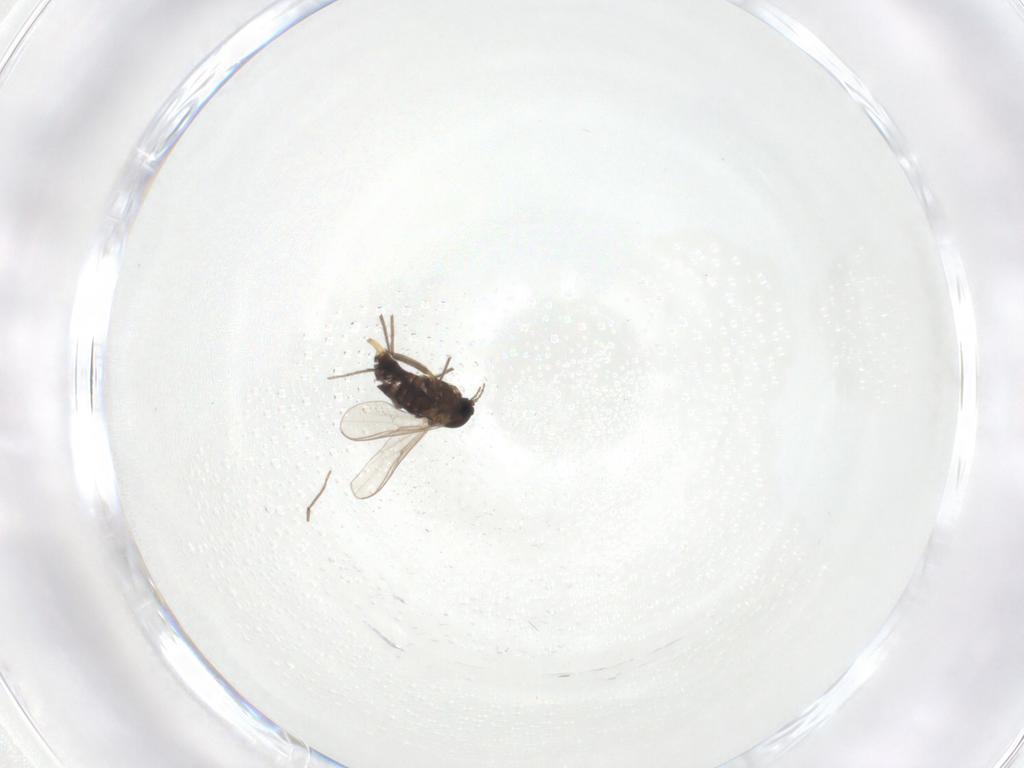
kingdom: Animalia
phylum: Arthropoda
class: Insecta
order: Diptera
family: Chironomidae
